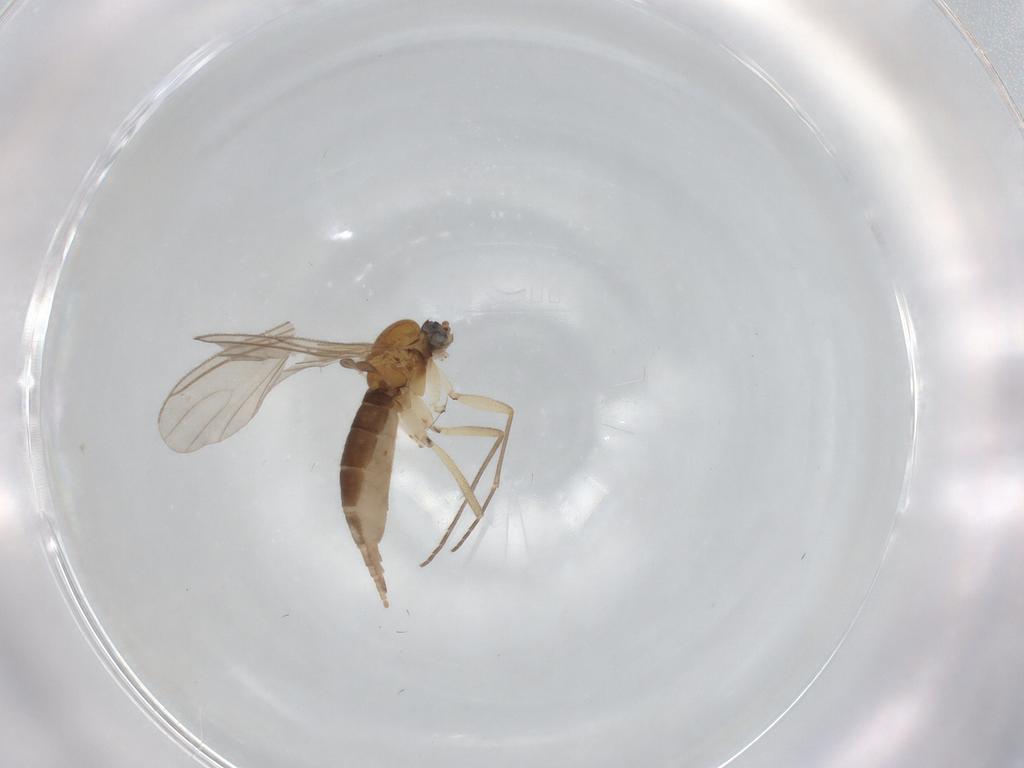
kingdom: Animalia
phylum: Arthropoda
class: Insecta
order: Diptera
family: Sciaridae
